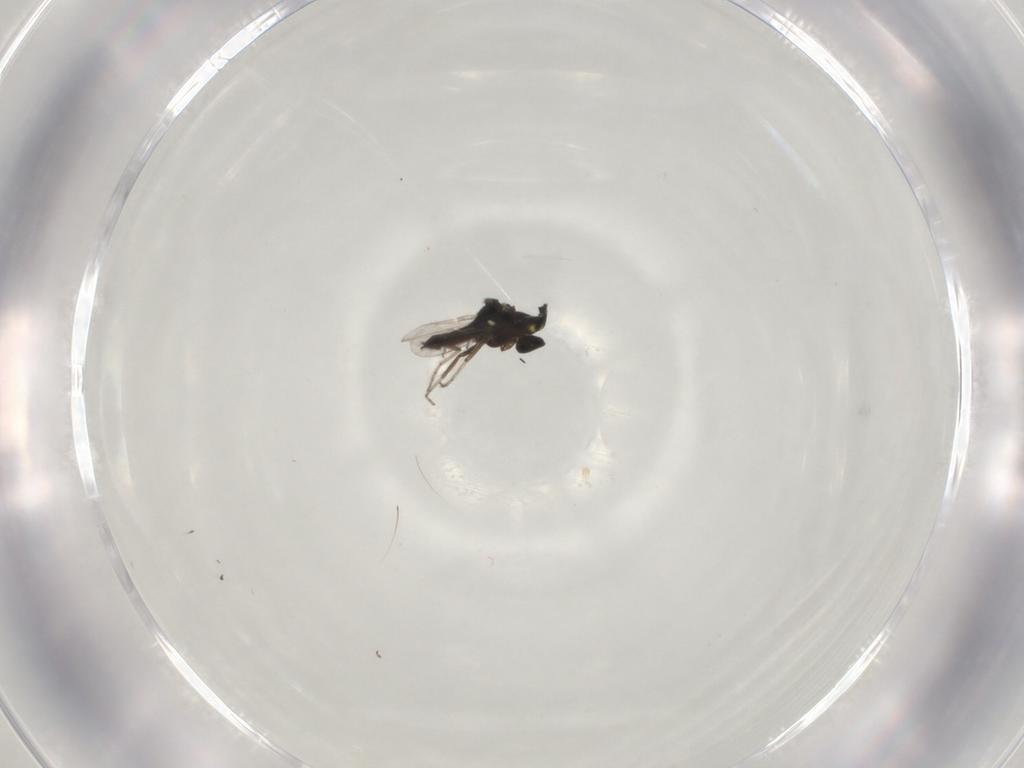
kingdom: Animalia
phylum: Arthropoda
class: Insecta
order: Diptera
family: Ceratopogonidae
